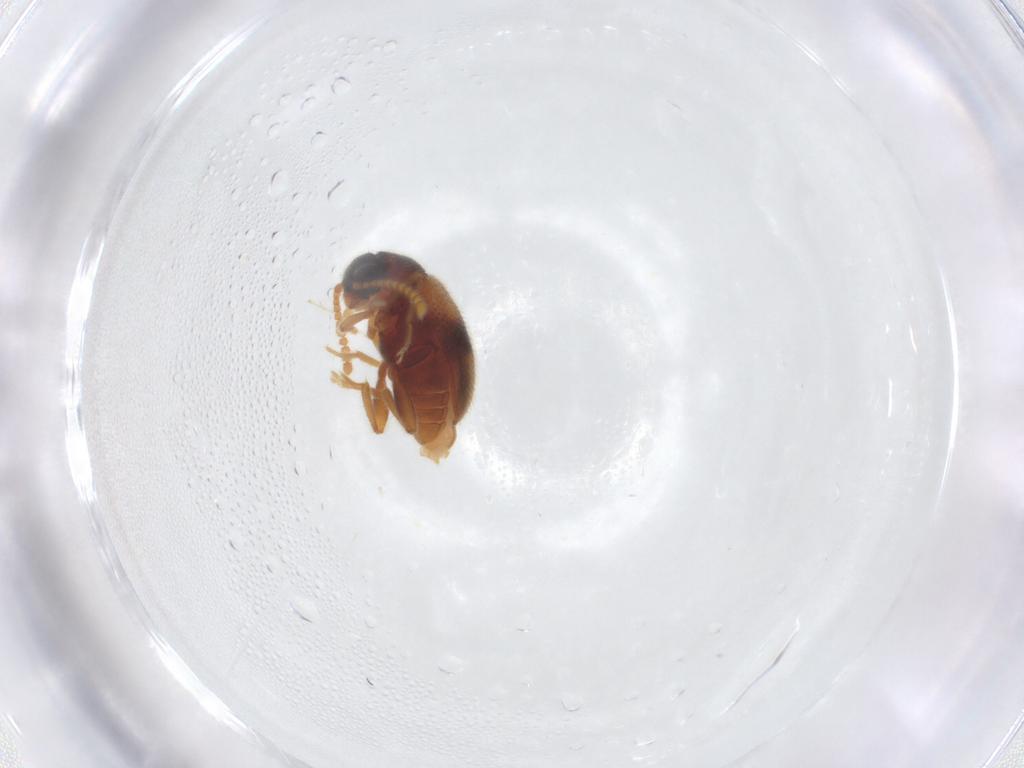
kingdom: Animalia
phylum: Arthropoda
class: Insecta
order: Coleoptera
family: Aderidae
